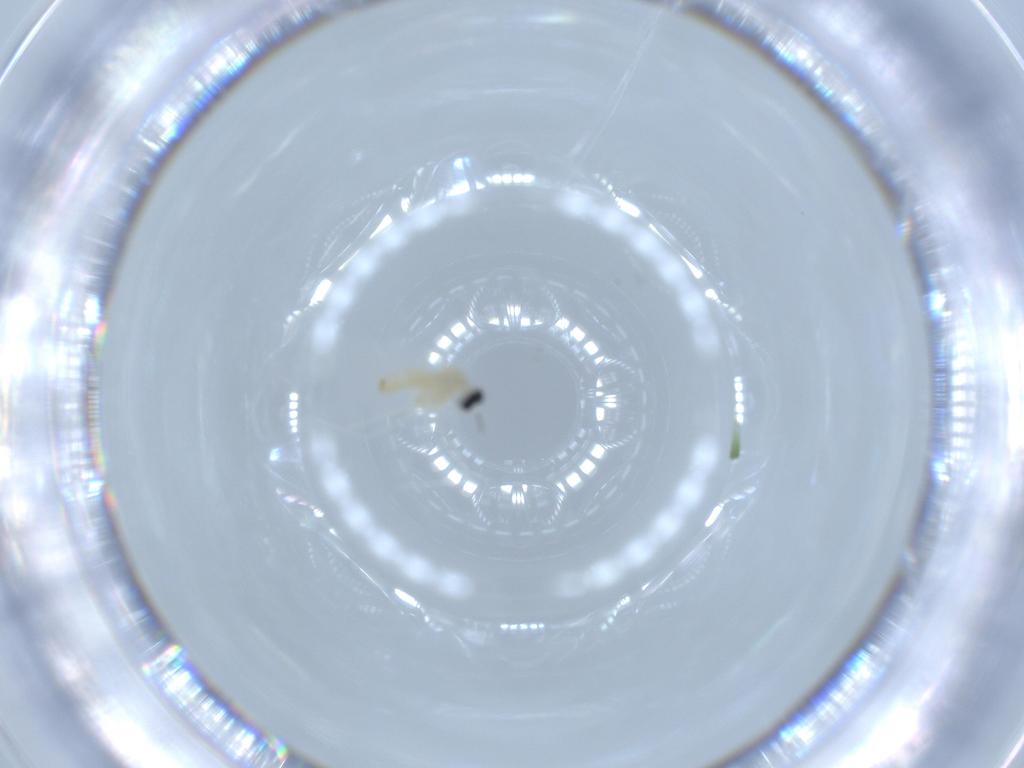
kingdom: Animalia
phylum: Arthropoda
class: Insecta
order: Diptera
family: Cecidomyiidae
